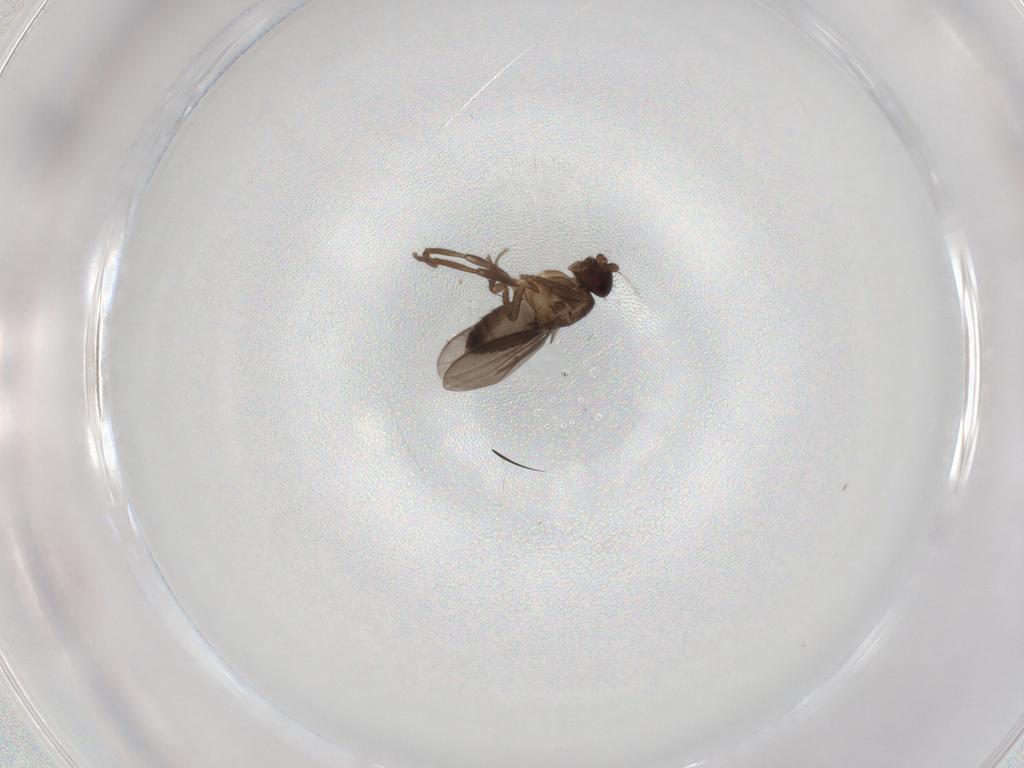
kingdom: Animalia
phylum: Arthropoda
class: Insecta
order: Diptera
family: Sphaeroceridae
